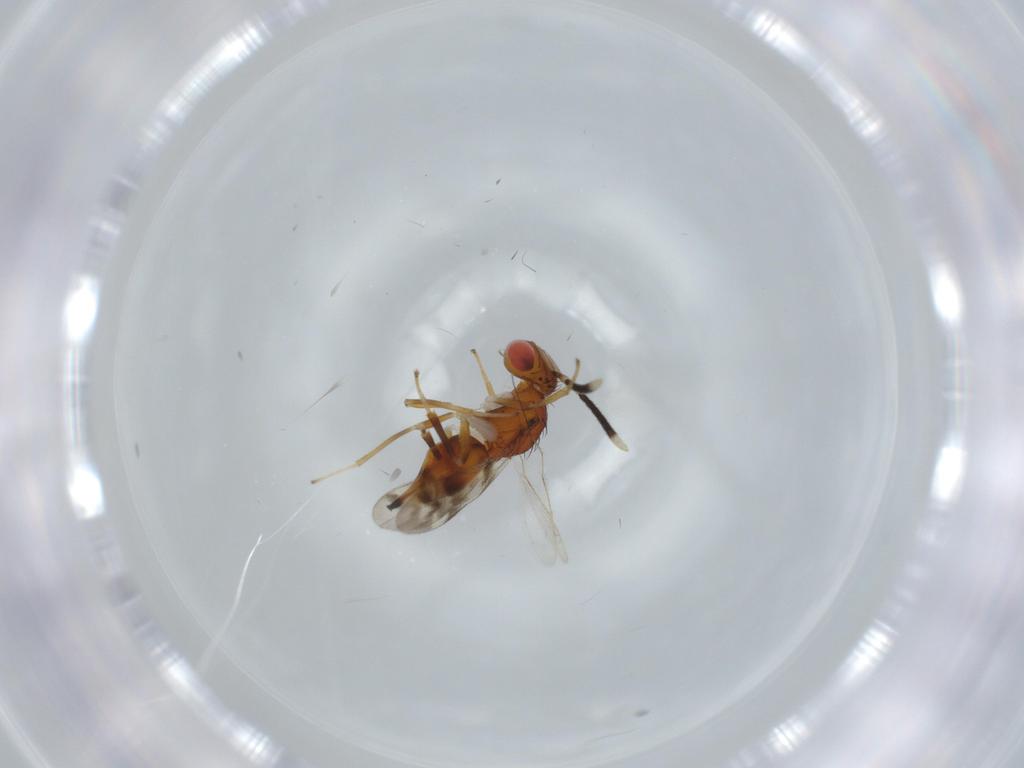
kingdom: Animalia
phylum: Arthropoda
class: Insecta
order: Hymenoptera
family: Diparidae
